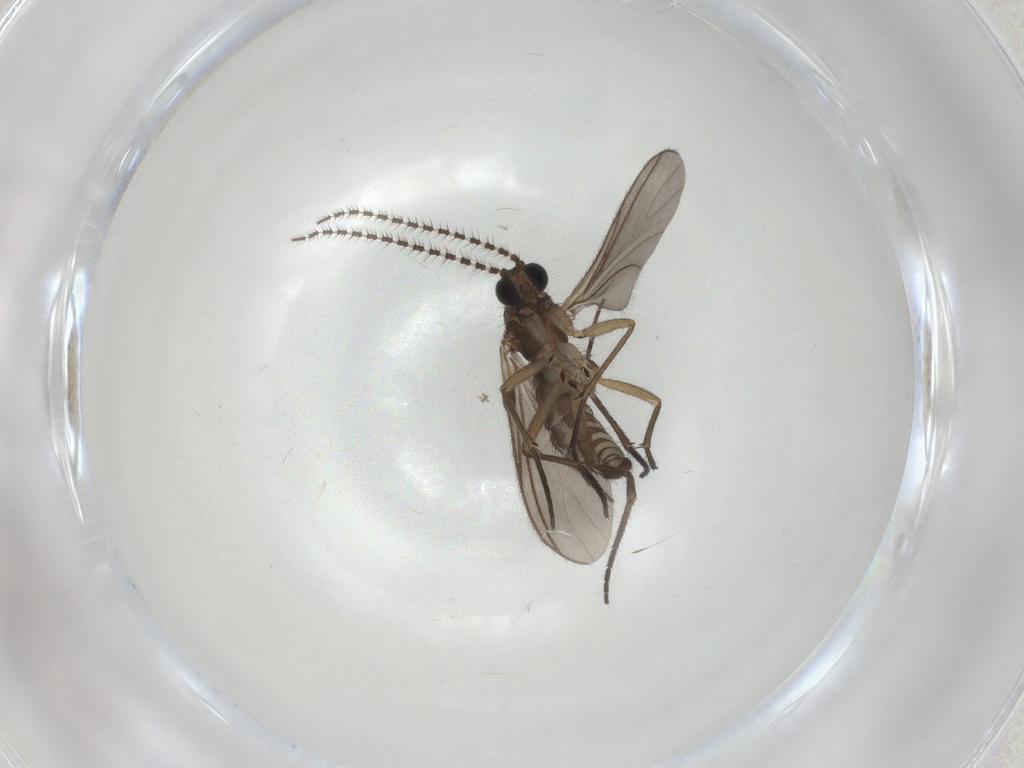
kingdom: Animalia
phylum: Arthropoda
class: Insecta
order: Diptera
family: Sciaridae
